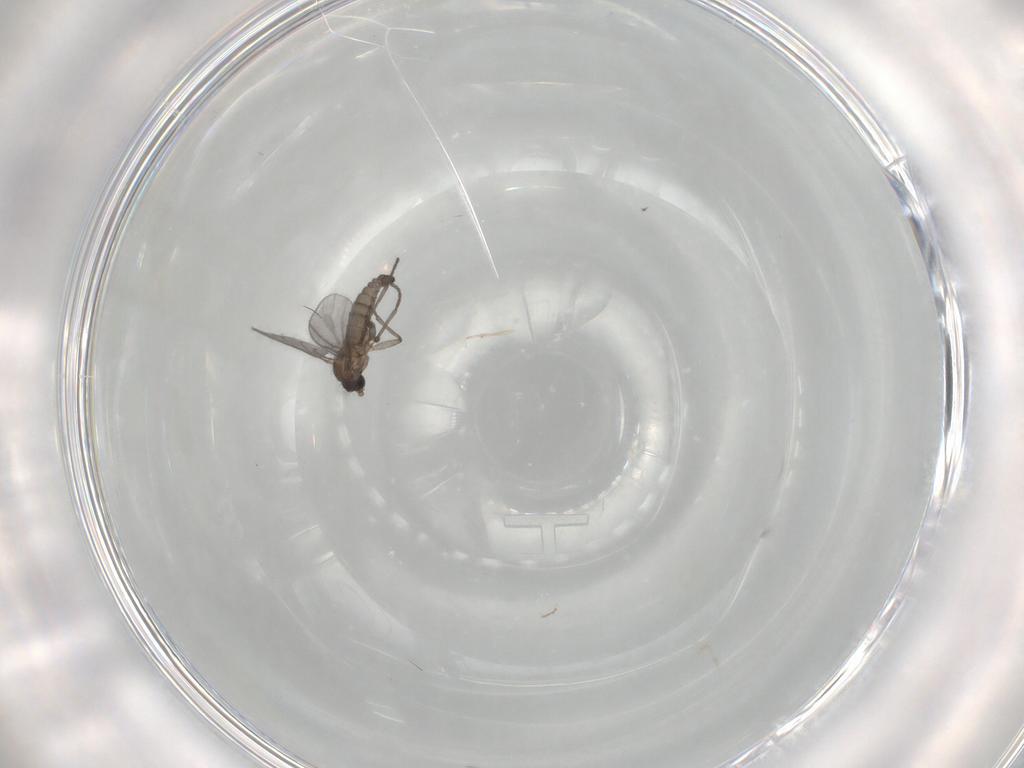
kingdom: Animalia
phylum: Arthropoda
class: Insecta
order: Diptera
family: Sciaridae
